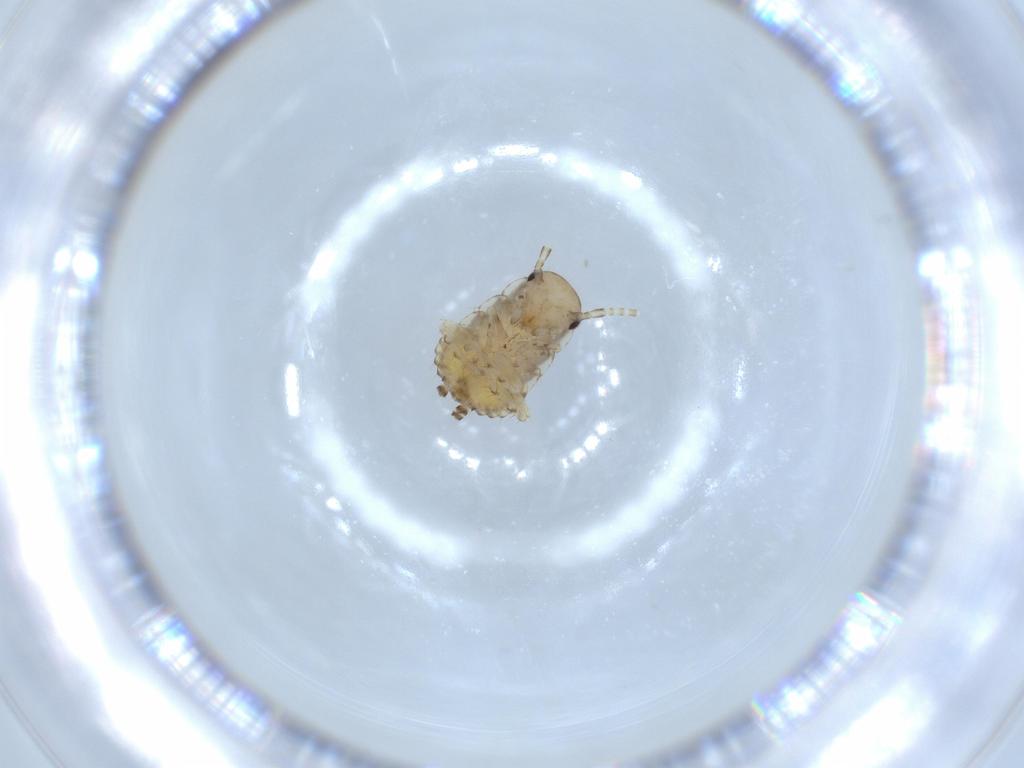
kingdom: Animalia
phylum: Arthropoda
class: Insecta
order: Blattodea
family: Ectobiidae
